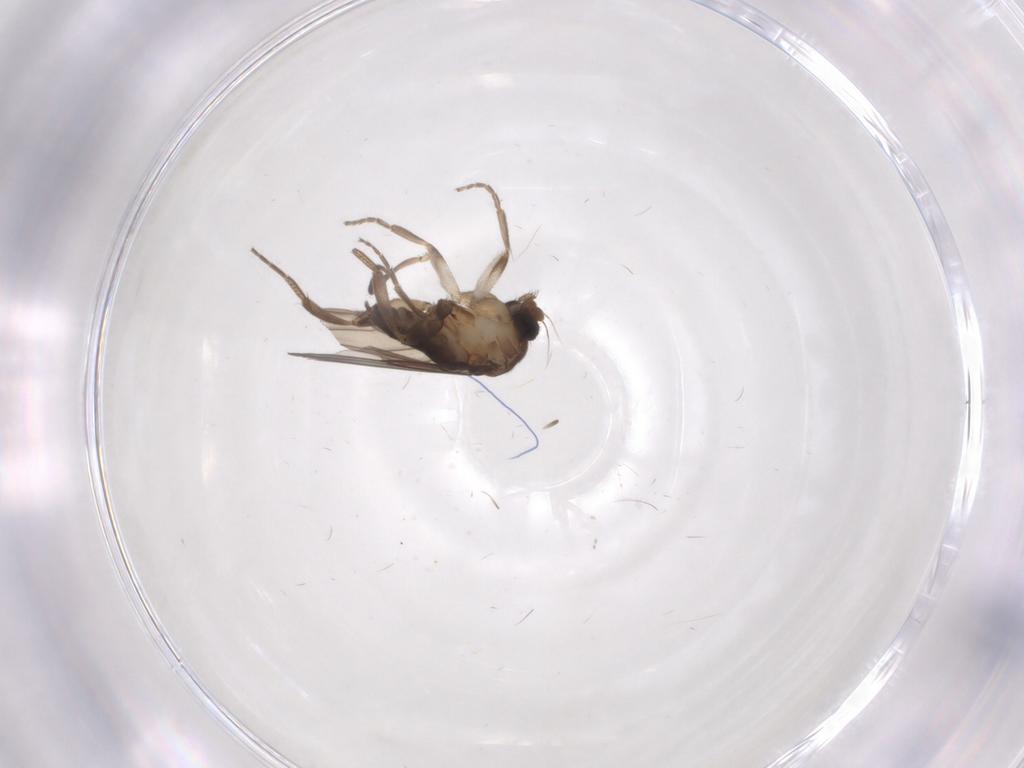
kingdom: Animalia
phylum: Arthropoda
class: Insecta
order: Diptera
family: Phoridae
